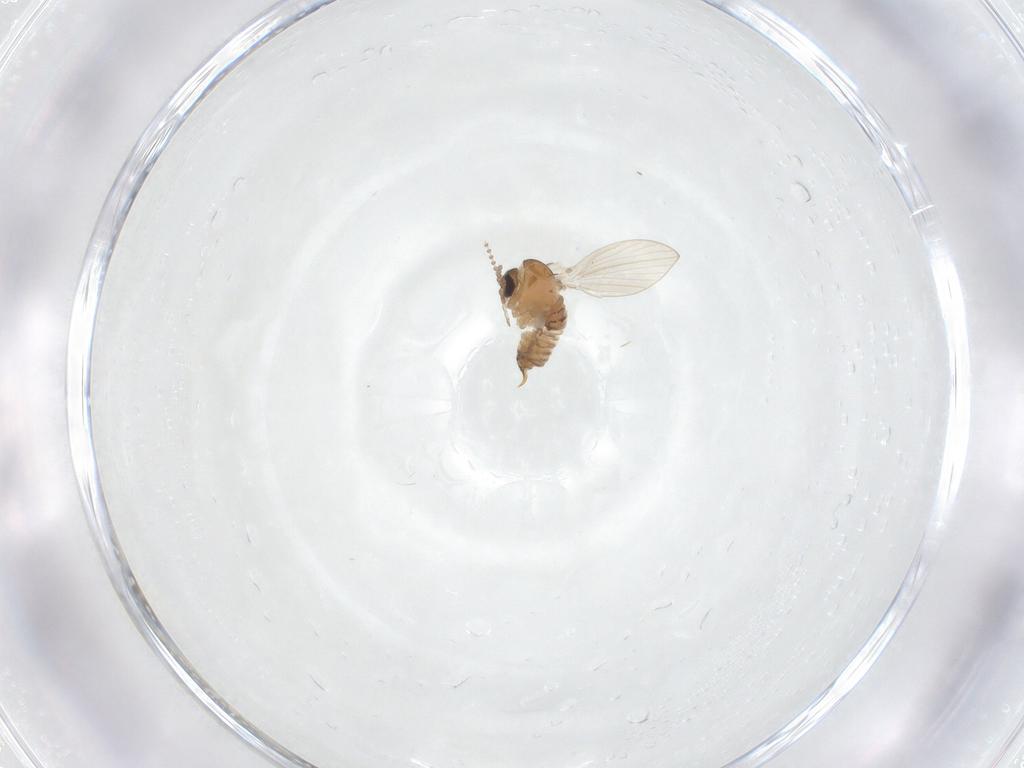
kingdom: Animalia
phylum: Arthropoda
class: Insecta
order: Diptera
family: Psychodidae
